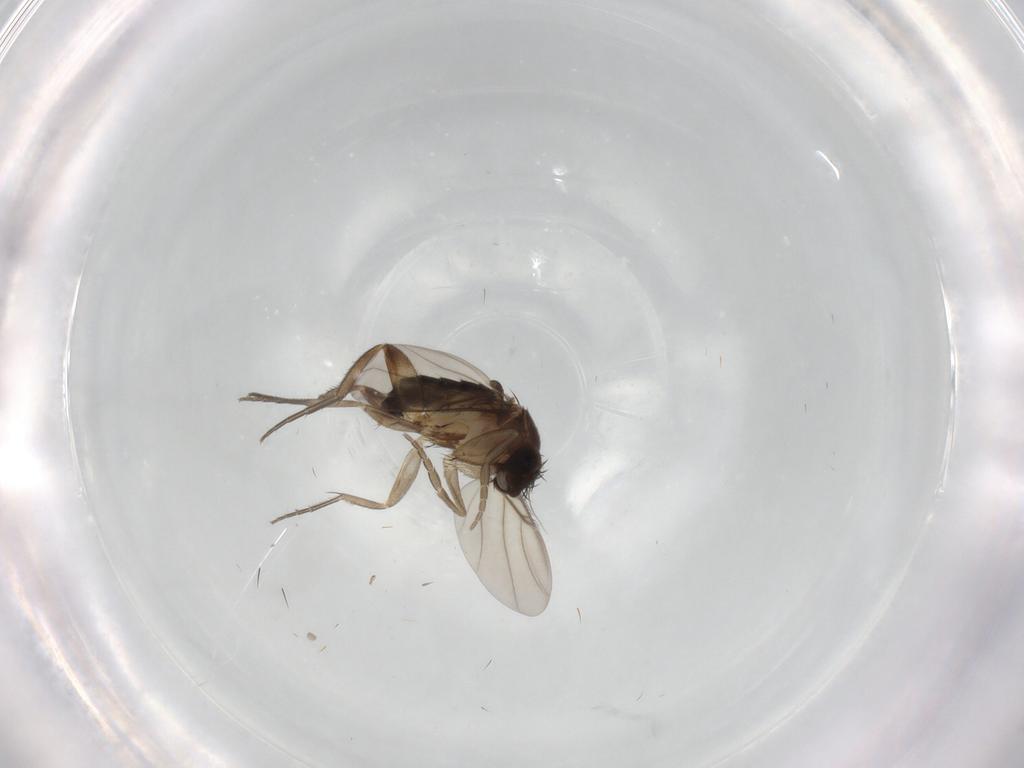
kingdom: Animalia
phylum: Arthropoda
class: Insecta
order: Diptera
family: Phoridae
